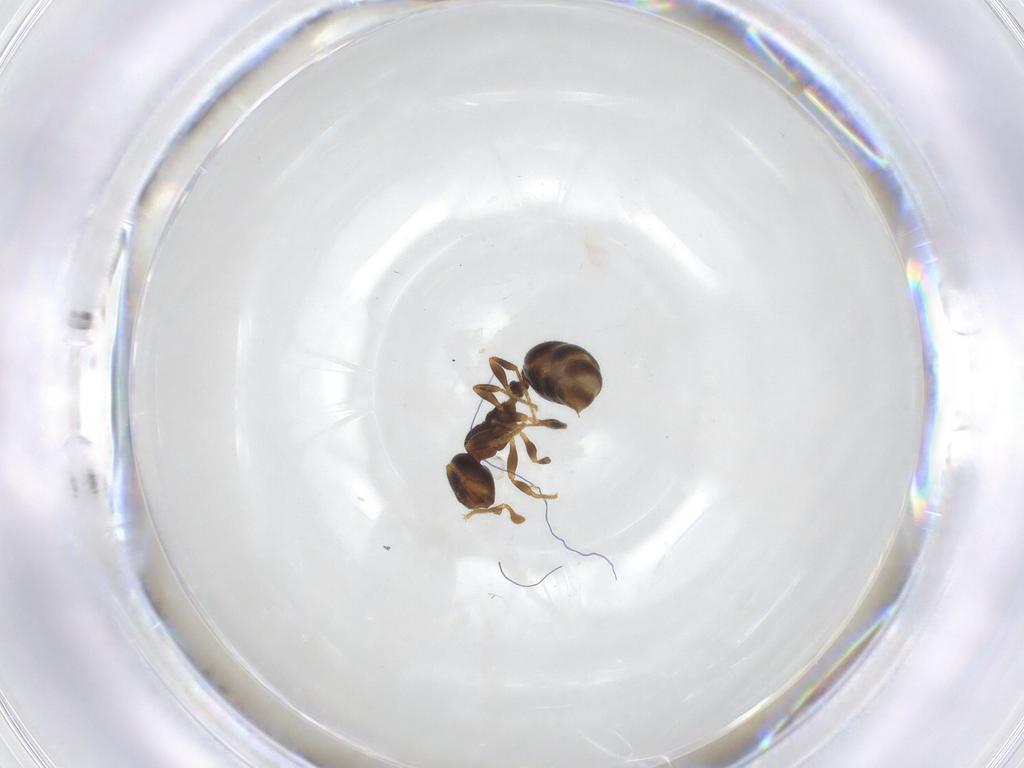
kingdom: Animalia
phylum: Arthropoda
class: Insecta
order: Hymenoptera
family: Formicidae
